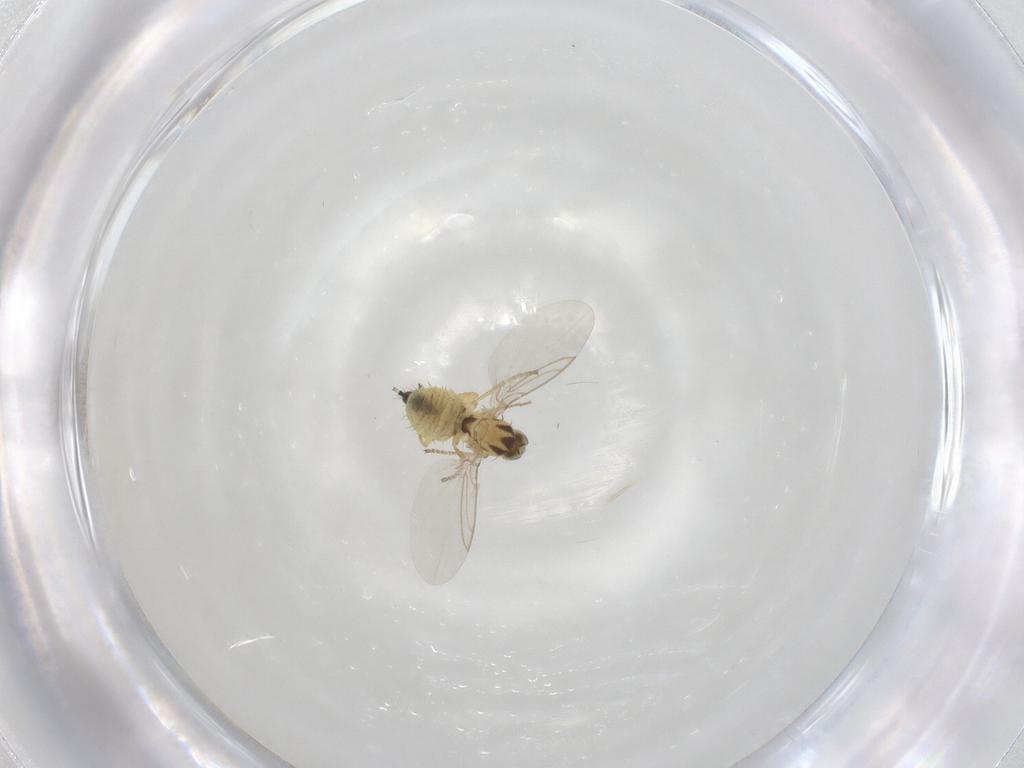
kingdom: Animalia
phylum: Arthropoda
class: Insecta
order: Diptera
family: Agromyzidae
